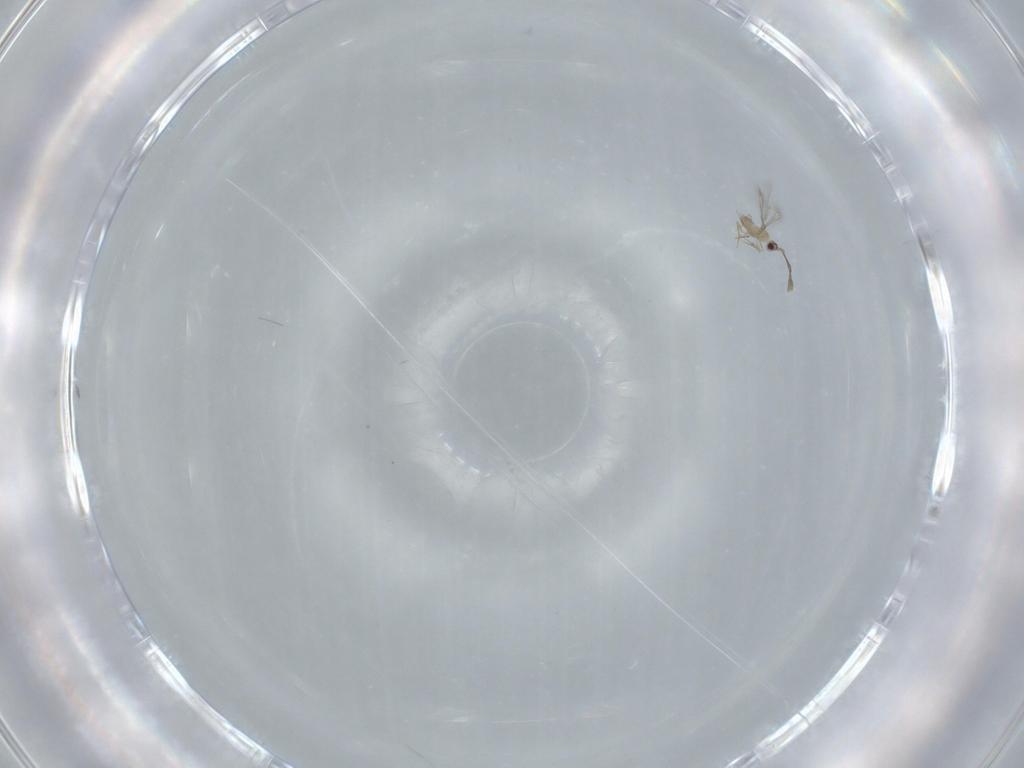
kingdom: Animalia
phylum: Arthropoda
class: Insecta
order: Hymenoptera
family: Mymaridae
